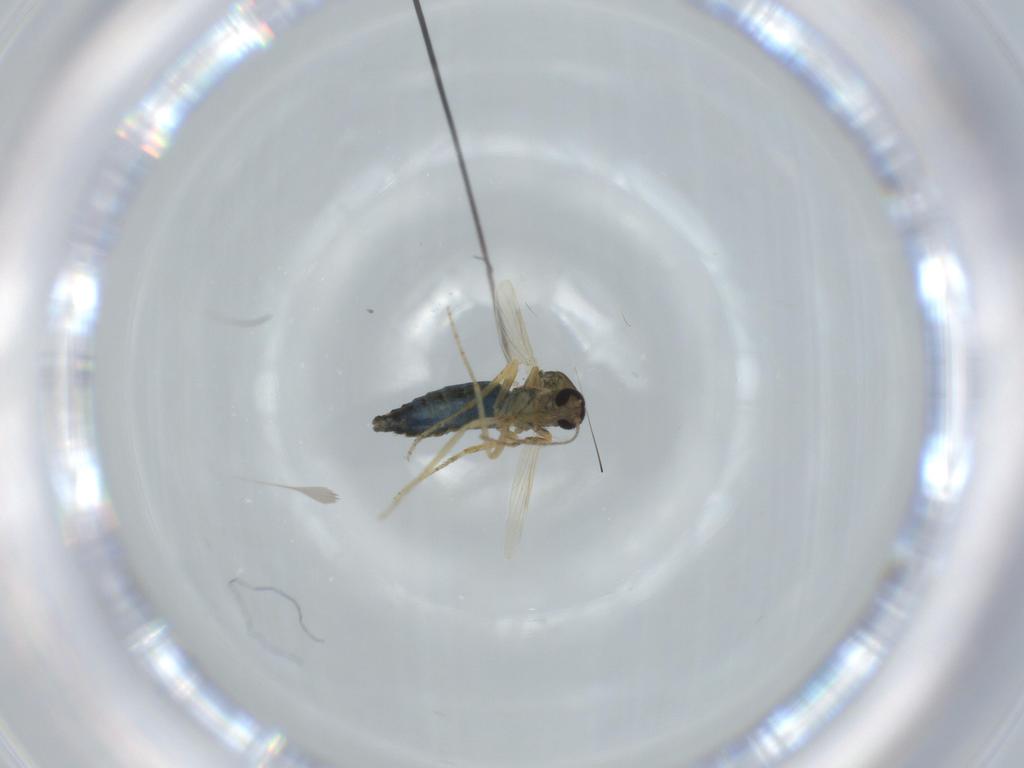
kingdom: Animalia
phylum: Arthropoda
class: Insecta
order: Diptera
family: Ceratopogonidae
